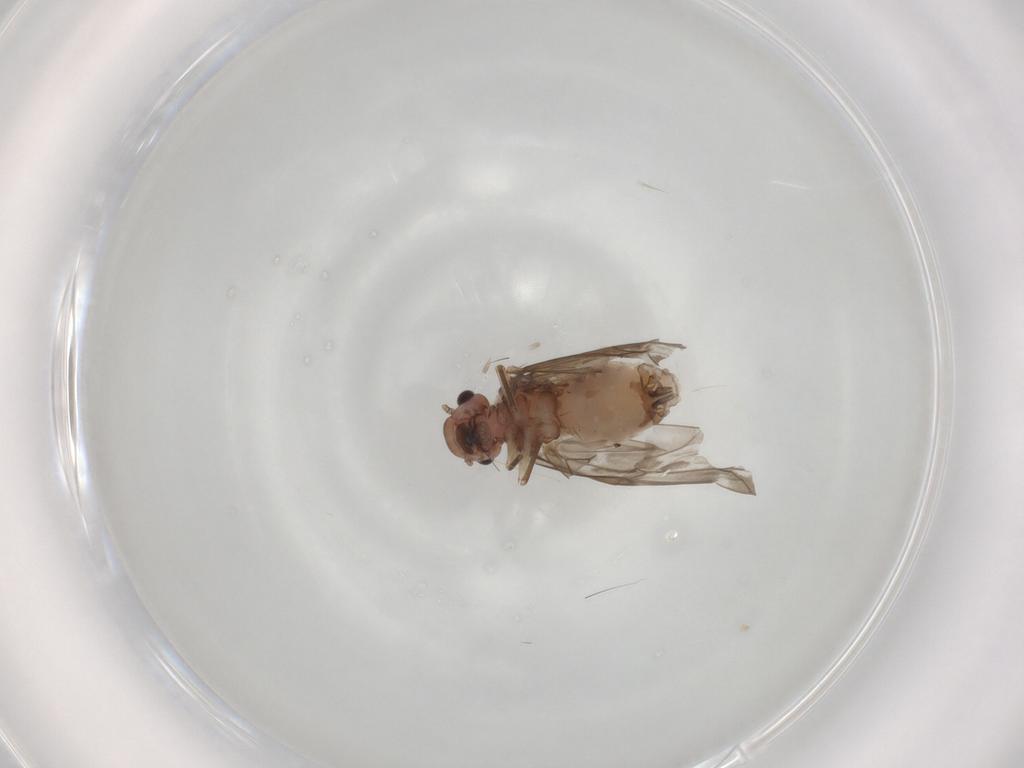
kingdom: Animalia
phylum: Arthropoda
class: Insecta
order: Psocodea
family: Peripsocidae
